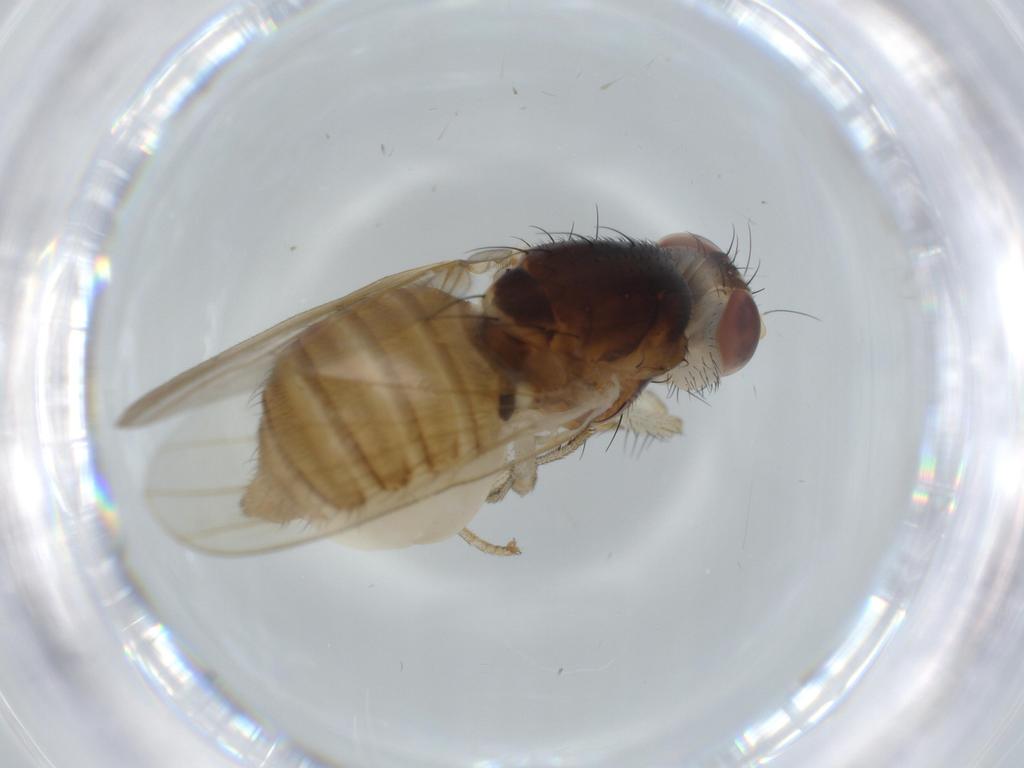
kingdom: Animalia
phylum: Arthropoda
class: Insecta
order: Diptera
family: Lauxaniidae
